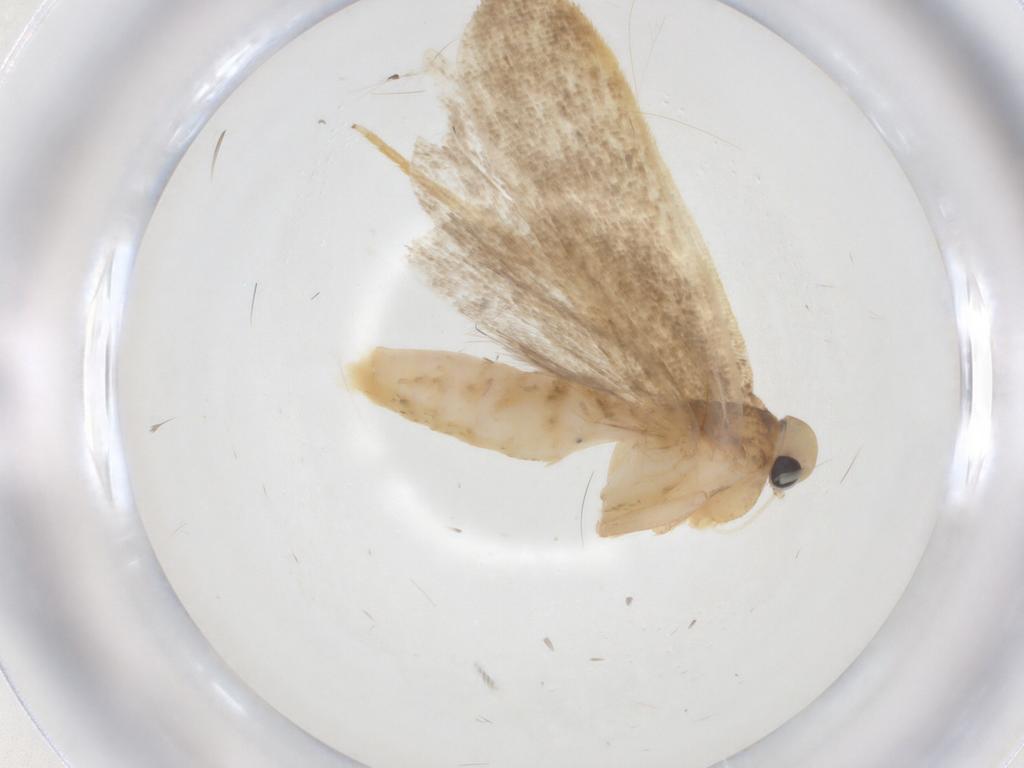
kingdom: Animalia
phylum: Arthropoda
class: Insecta
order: Lepidoptera
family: Gelechiidae
